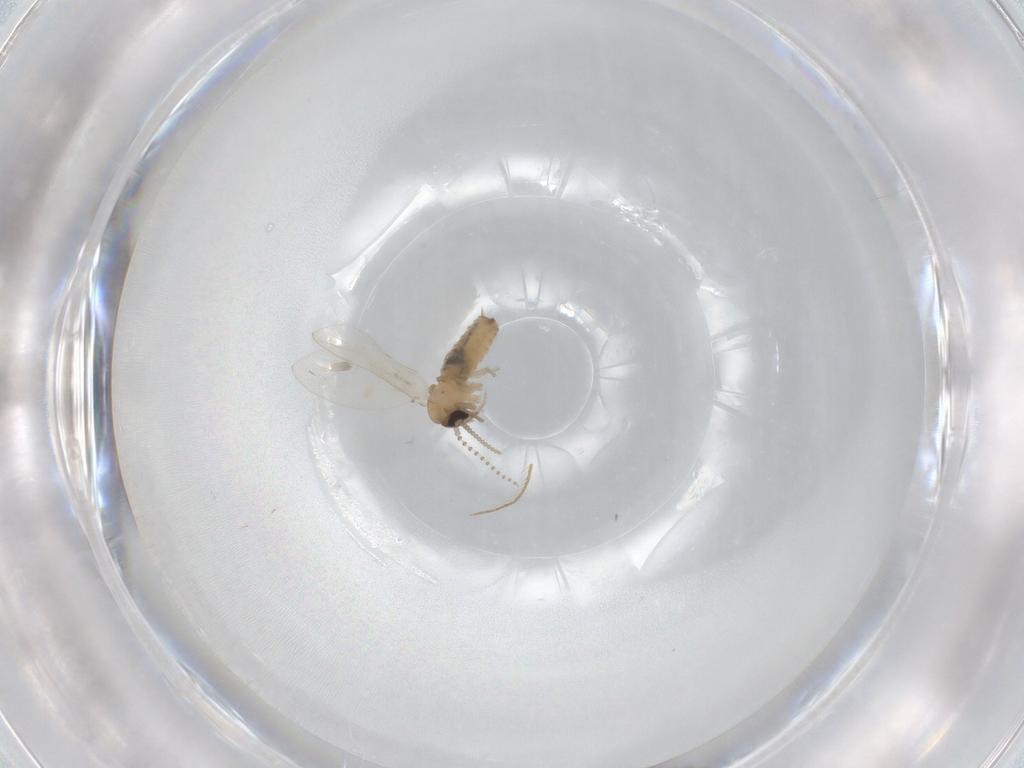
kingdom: Animalia
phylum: Arthropoda
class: Insecta
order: Diptera
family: Psychodidae
